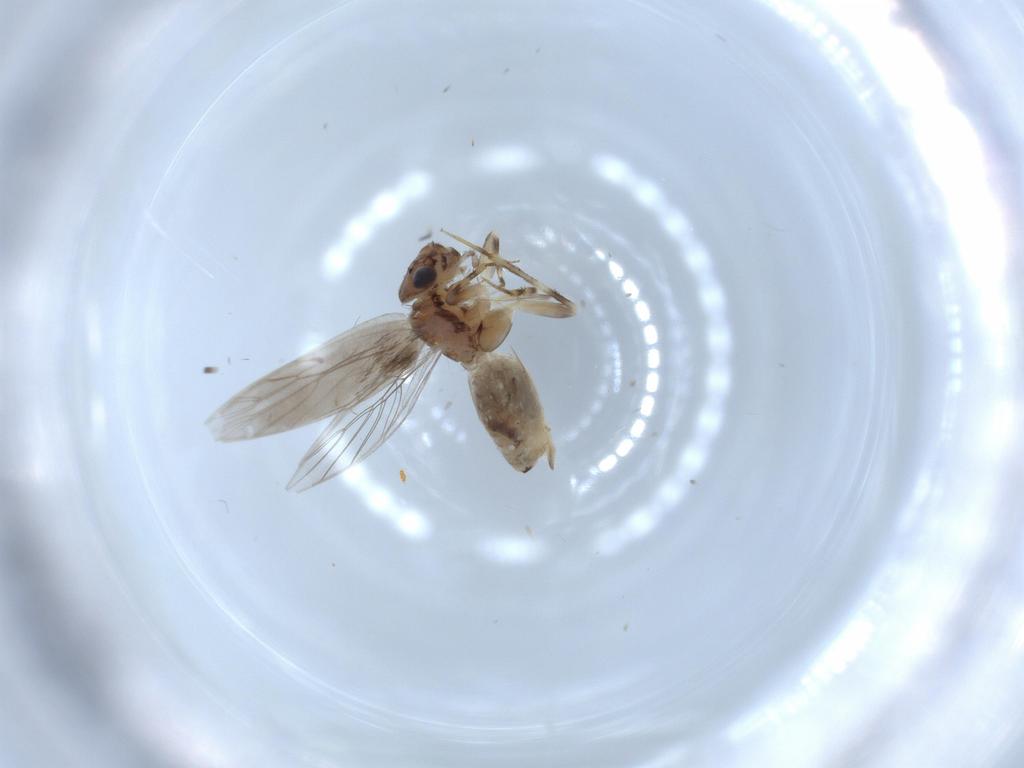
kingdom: Animalia
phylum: Arthropoda
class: Insecta
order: Psocodea
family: Lepidopsocidae
